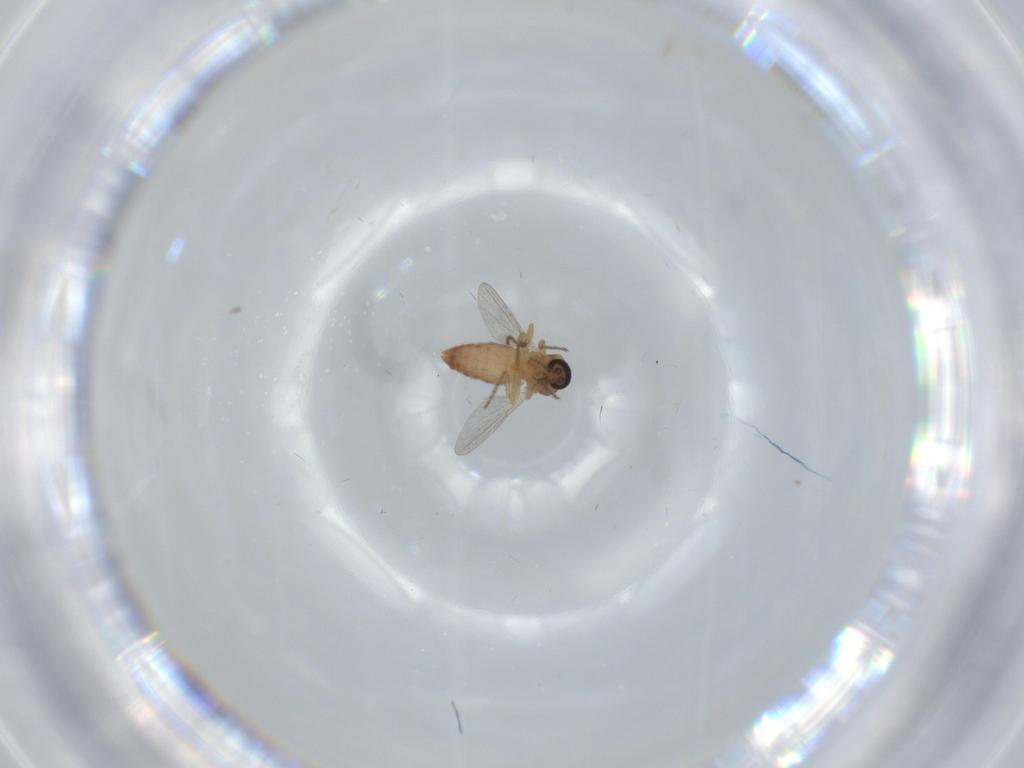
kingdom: Animalia
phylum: Arthropoda
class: Insecta
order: Diptera
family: Ceratopogonidae
